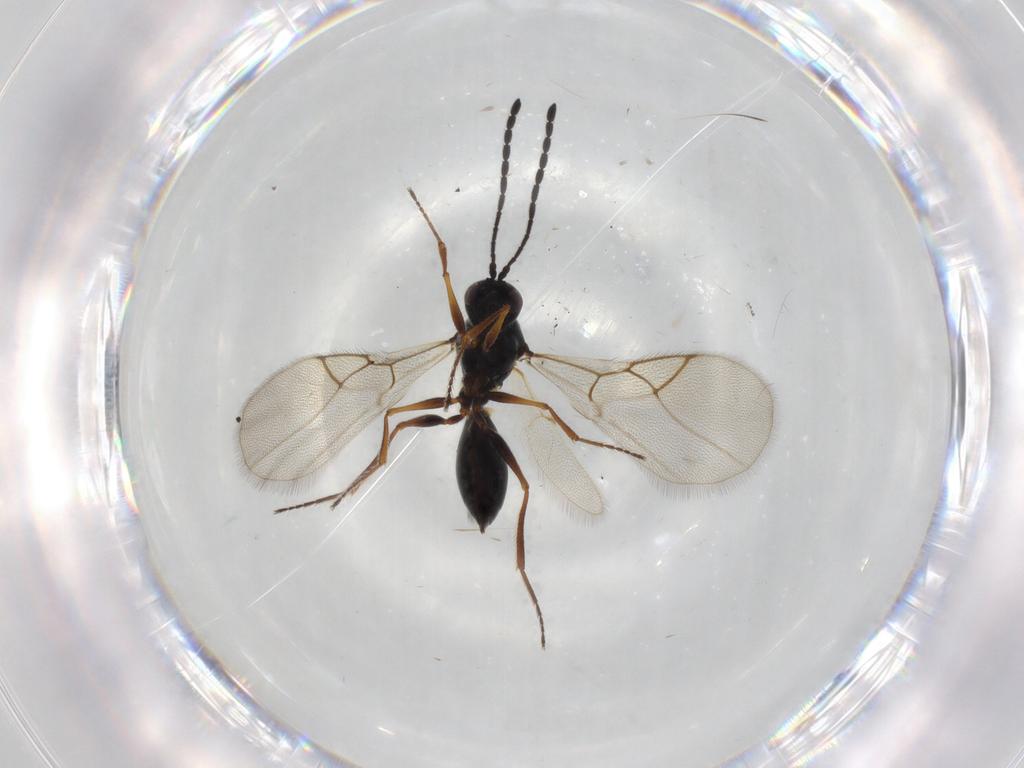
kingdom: Animalia
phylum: Arthropoda
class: Insecta
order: Hymenoptera
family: Figitidae
